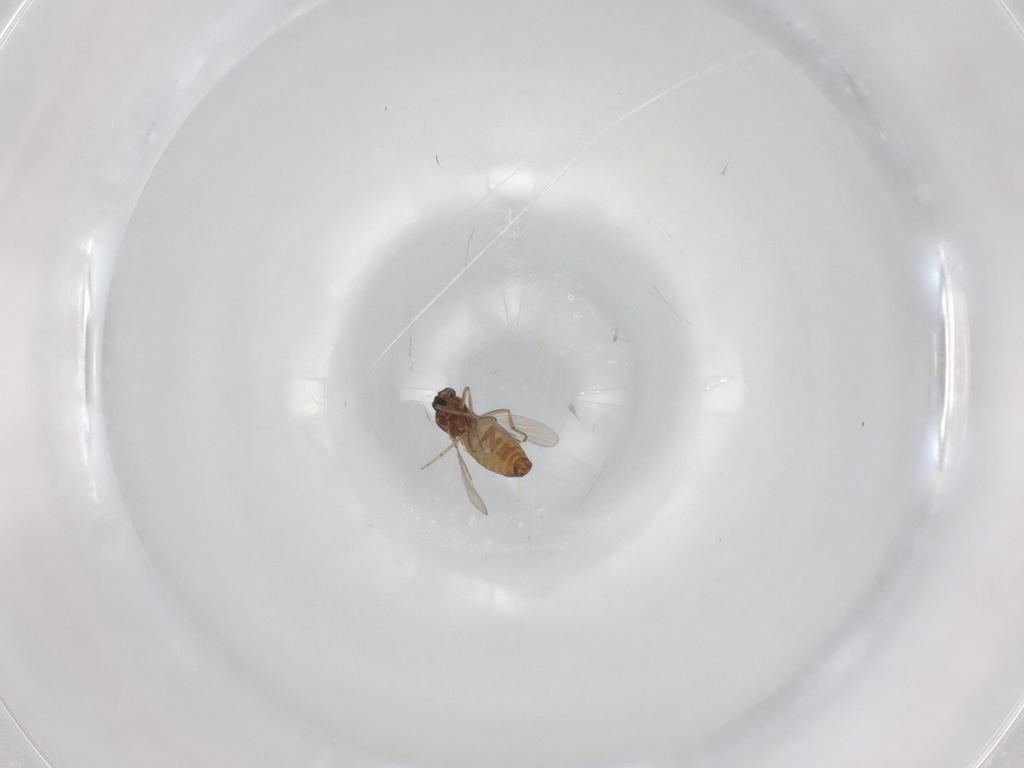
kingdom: Animalia
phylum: Arthropoda
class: Insecta
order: Diptera
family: Ceratopogonidae
